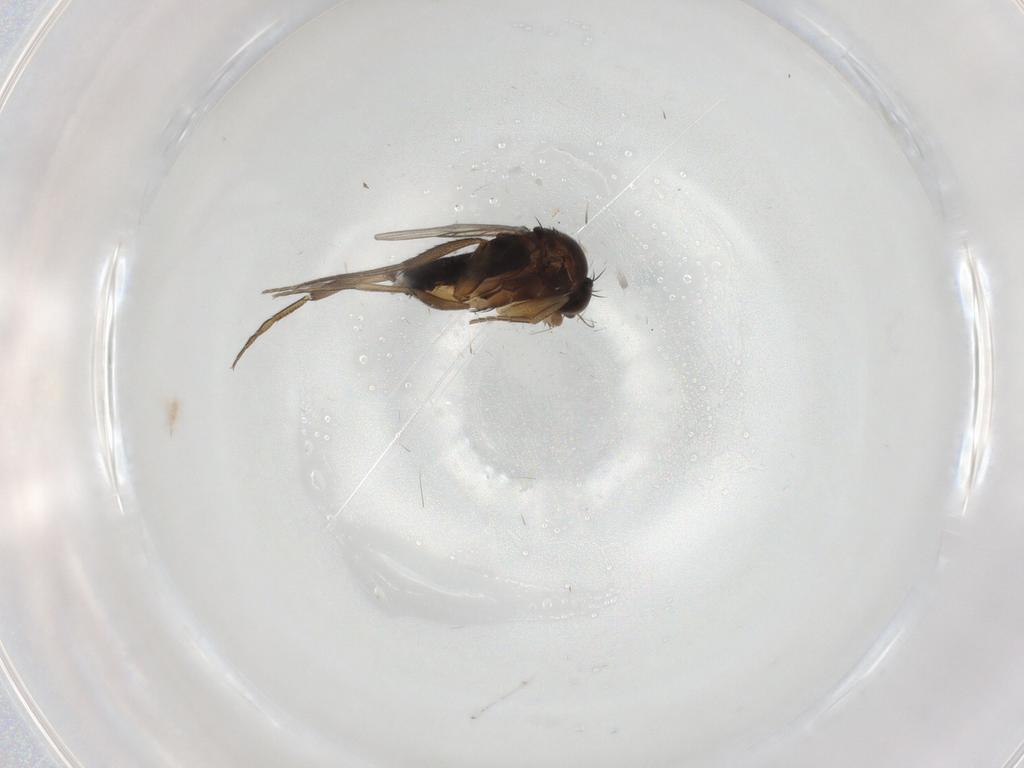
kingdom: Animalia
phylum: Arthropoda
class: Insecta
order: Diptera
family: Phoridae
